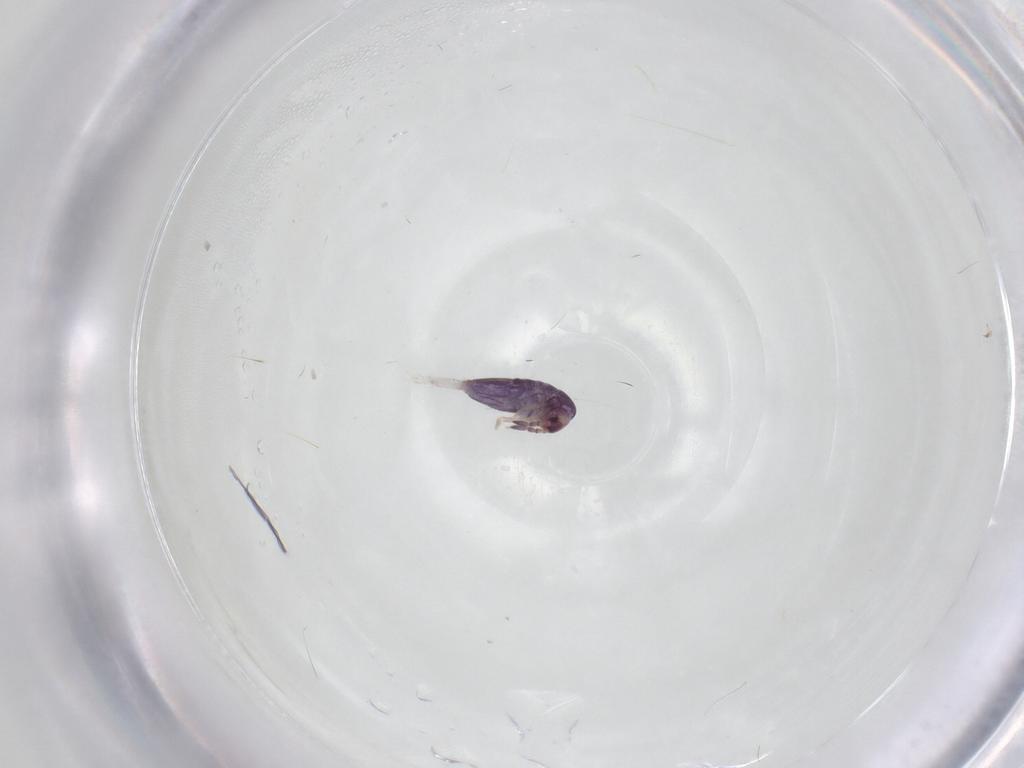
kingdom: Animalia
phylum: Arthropoda
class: Collembola
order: Entomobryomorpha
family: Entomobryidae
